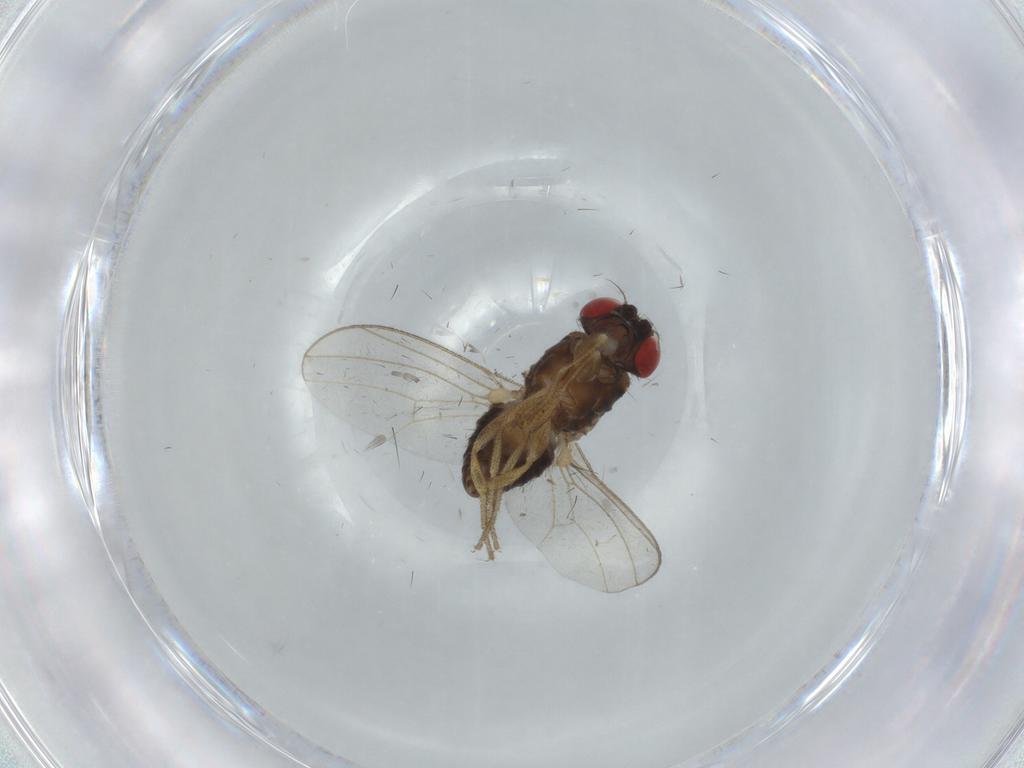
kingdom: Animalia
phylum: Arthropoda
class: Insecta
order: Diptera
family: Drosophilidae
